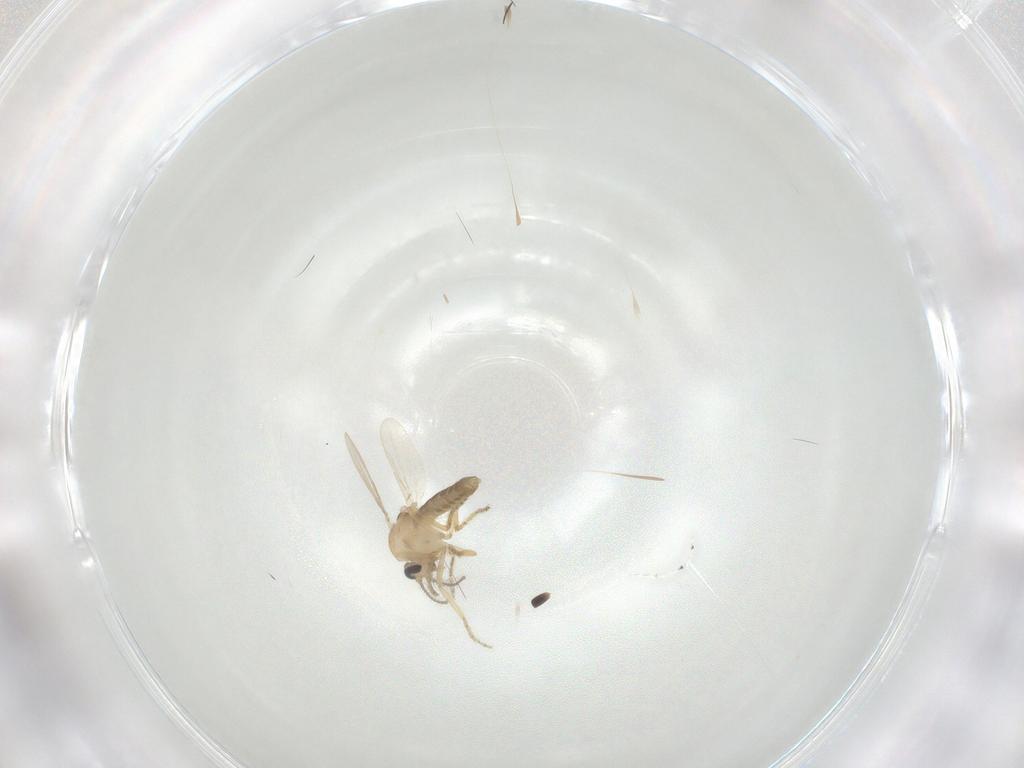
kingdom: Animalia
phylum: Arthropoda
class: Insecta
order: Diptera
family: Ceratopogonidae
